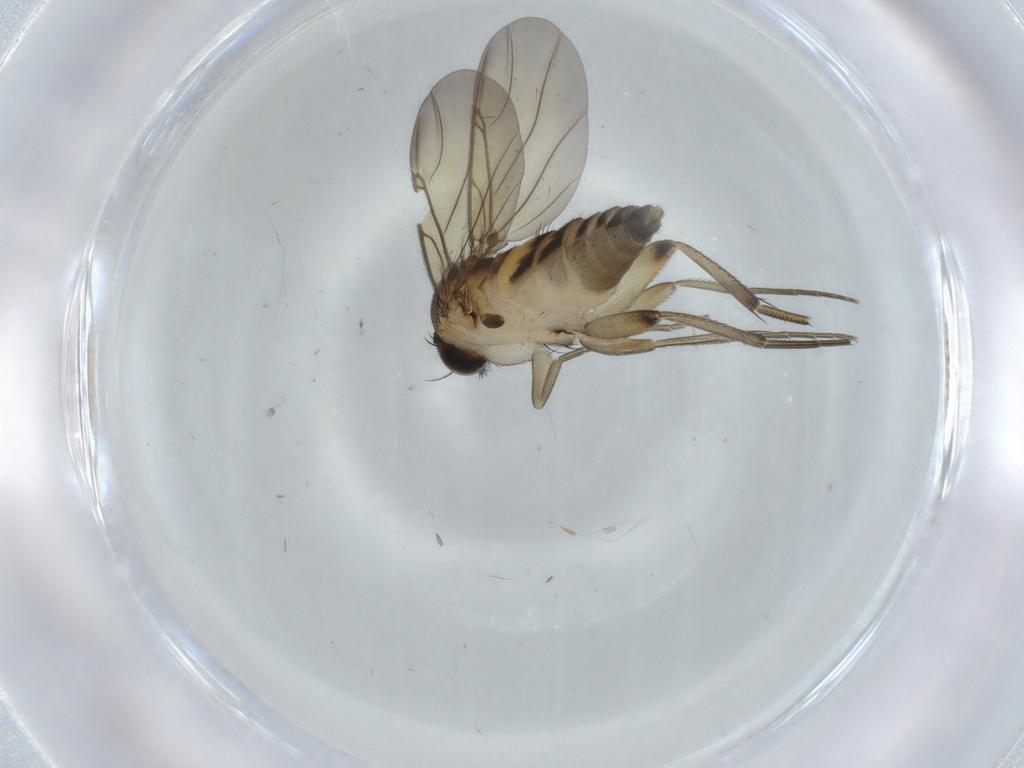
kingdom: Animalia
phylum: Arthropoda
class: Insecta
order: Diptera
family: Phoridae
